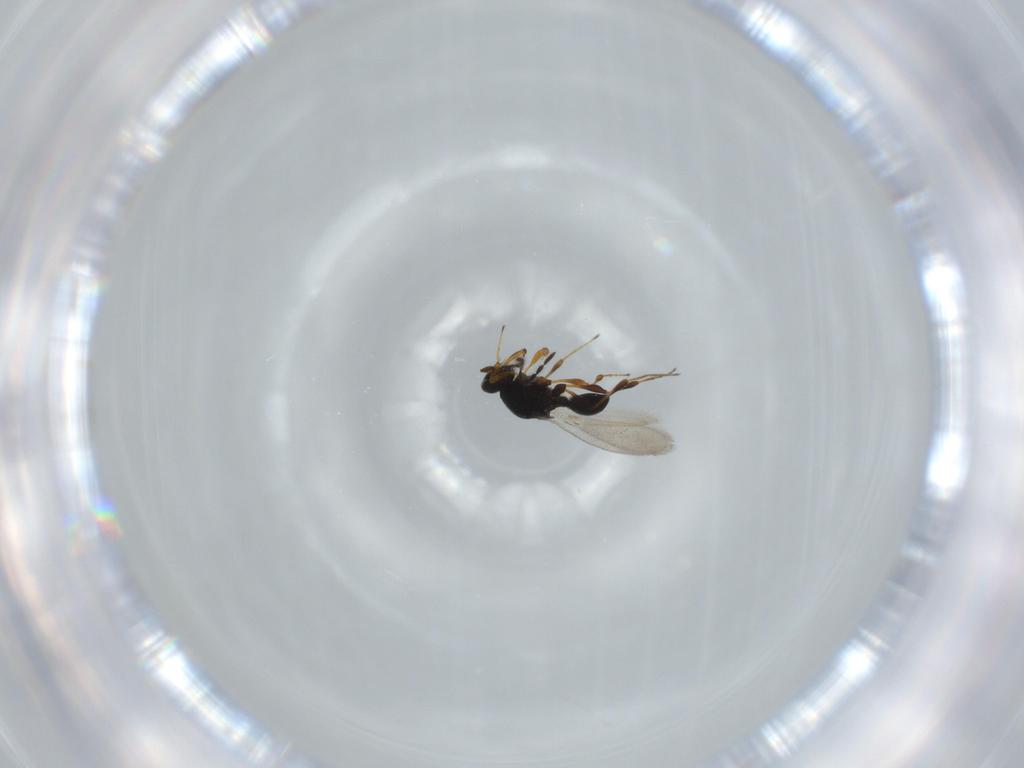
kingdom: Animalia
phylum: Arthropoda
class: Insecta
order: Hymenoptera
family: Platygastridae
